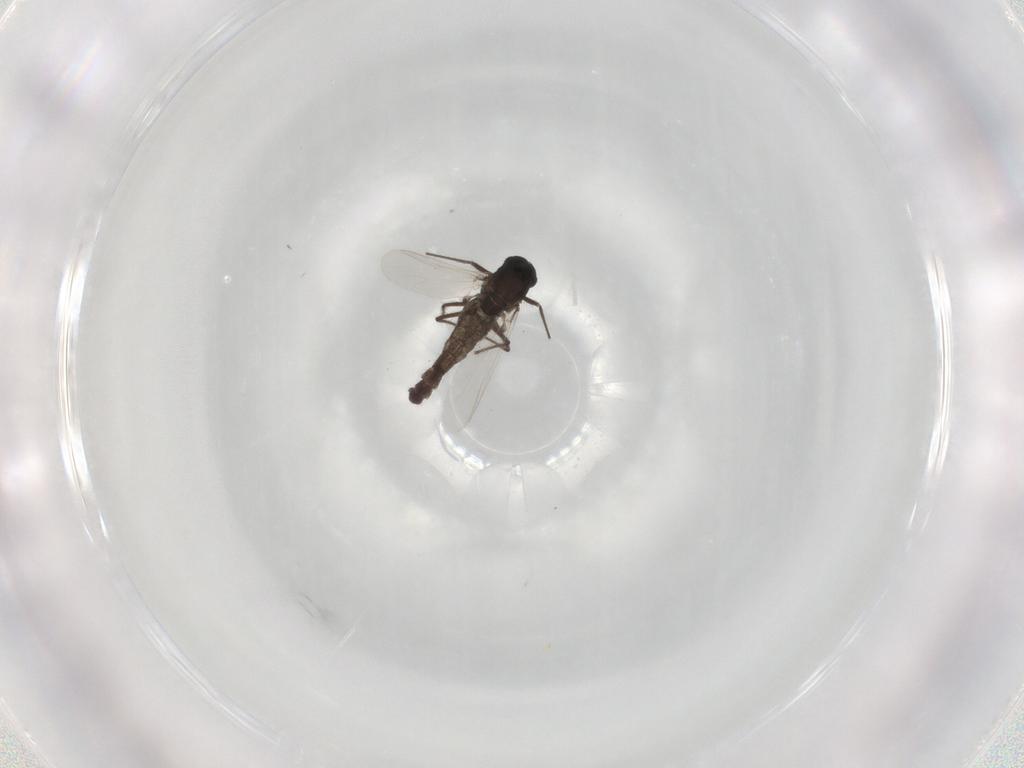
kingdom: Animalia
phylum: Arthropoda
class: Insecta
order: Diptera
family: Chironomidae
